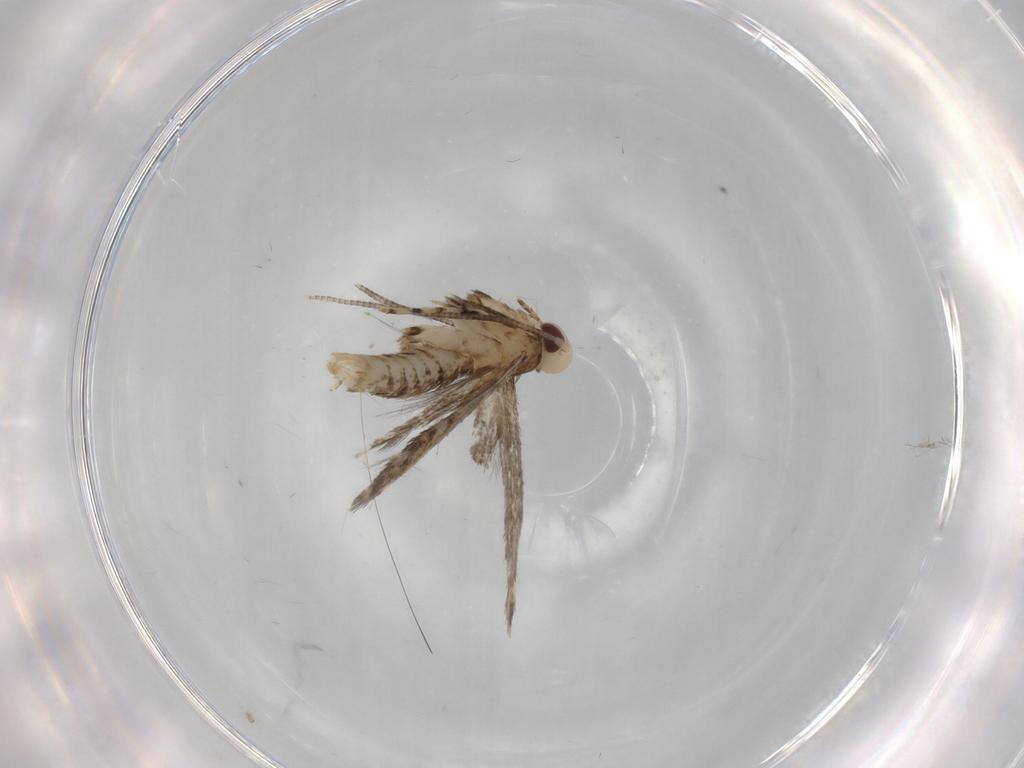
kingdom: Animalia
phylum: Arthropoda
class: Insecta
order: Lepidoptera
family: Gracillariidae
